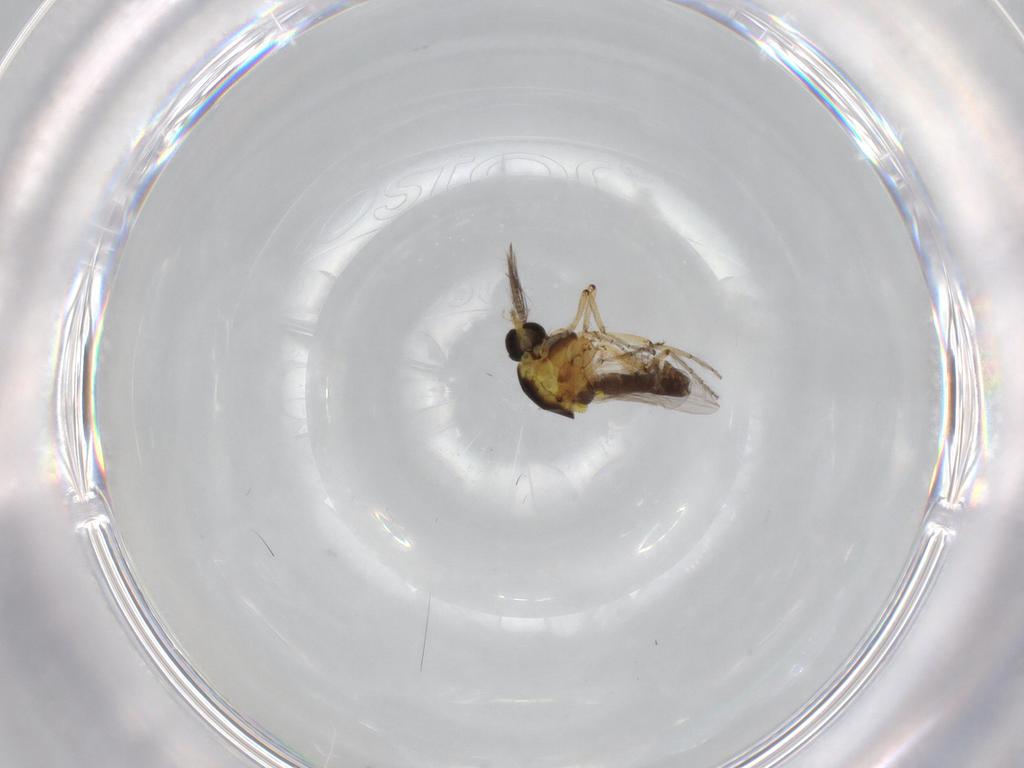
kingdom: Animalia
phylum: Arthropoda
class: Insecta
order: Diptera
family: Ceratopogonidae
